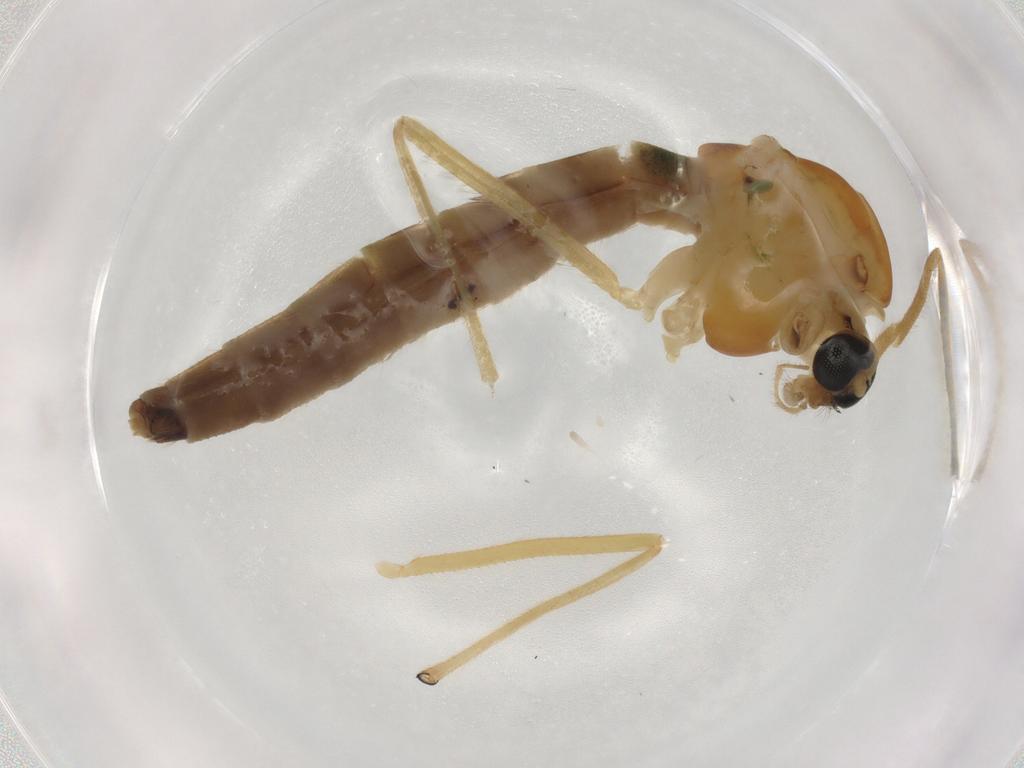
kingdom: Animalia
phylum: Arthropoda
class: Insecta
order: Diptera
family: Chironomidae
